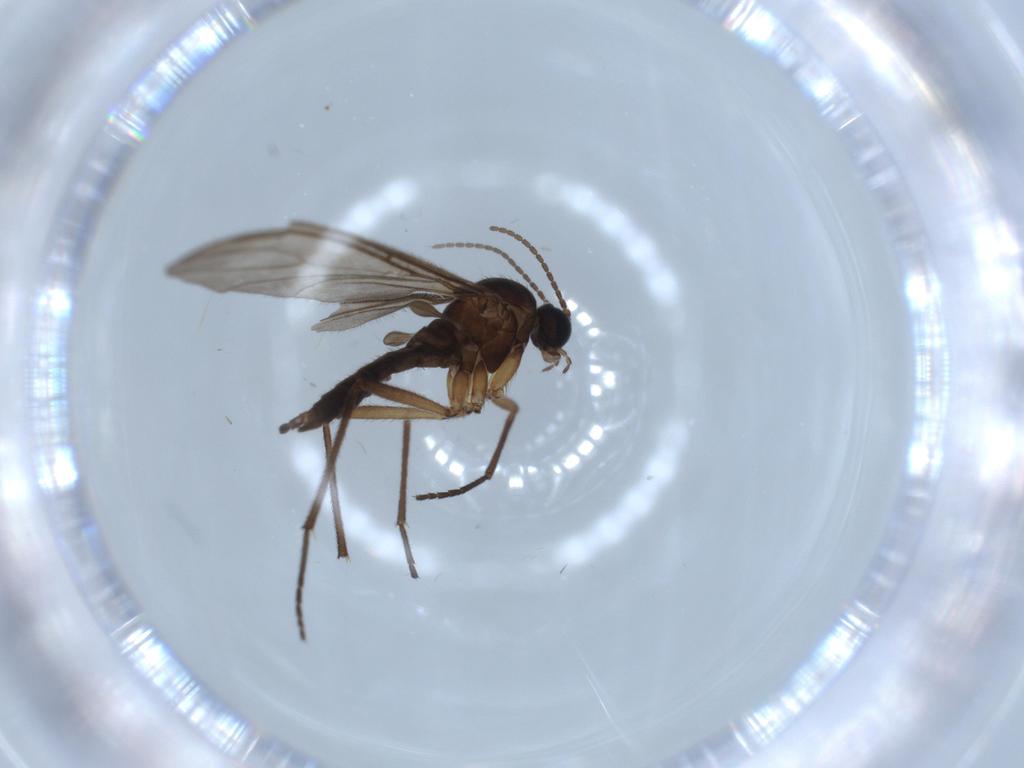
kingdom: Animalia
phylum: Arthropoda
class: Insecta
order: Diptera
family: Sciaridae
